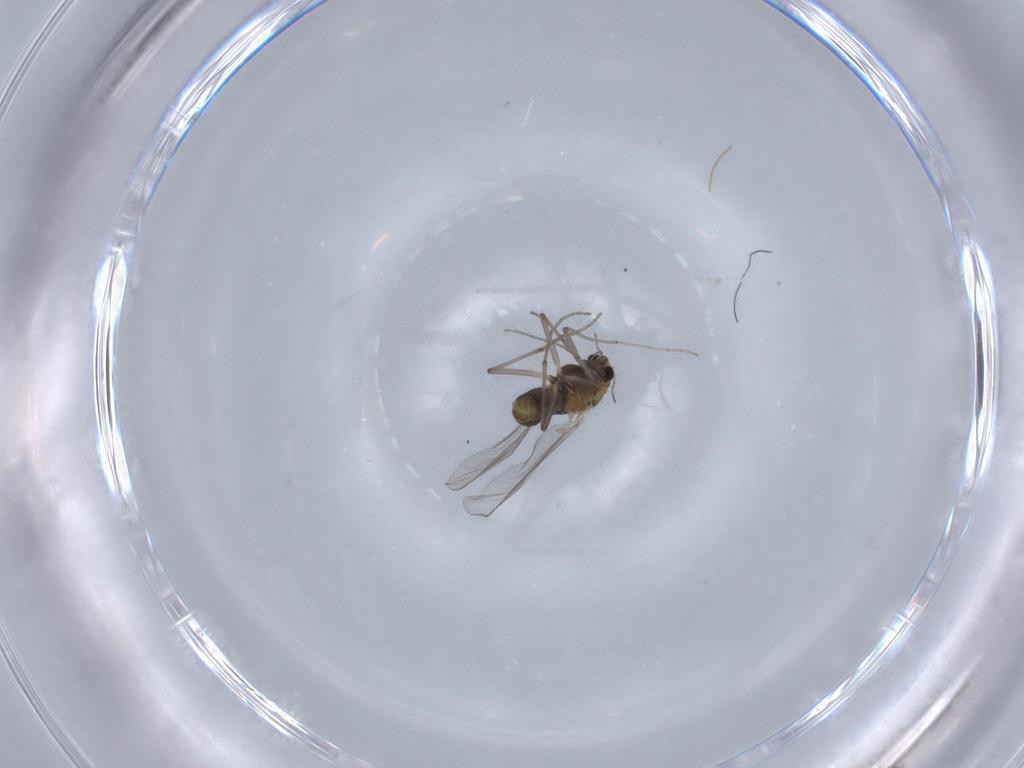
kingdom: Animalia
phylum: Arthropoda
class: Insecta
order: Diptera
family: Chironomidae
